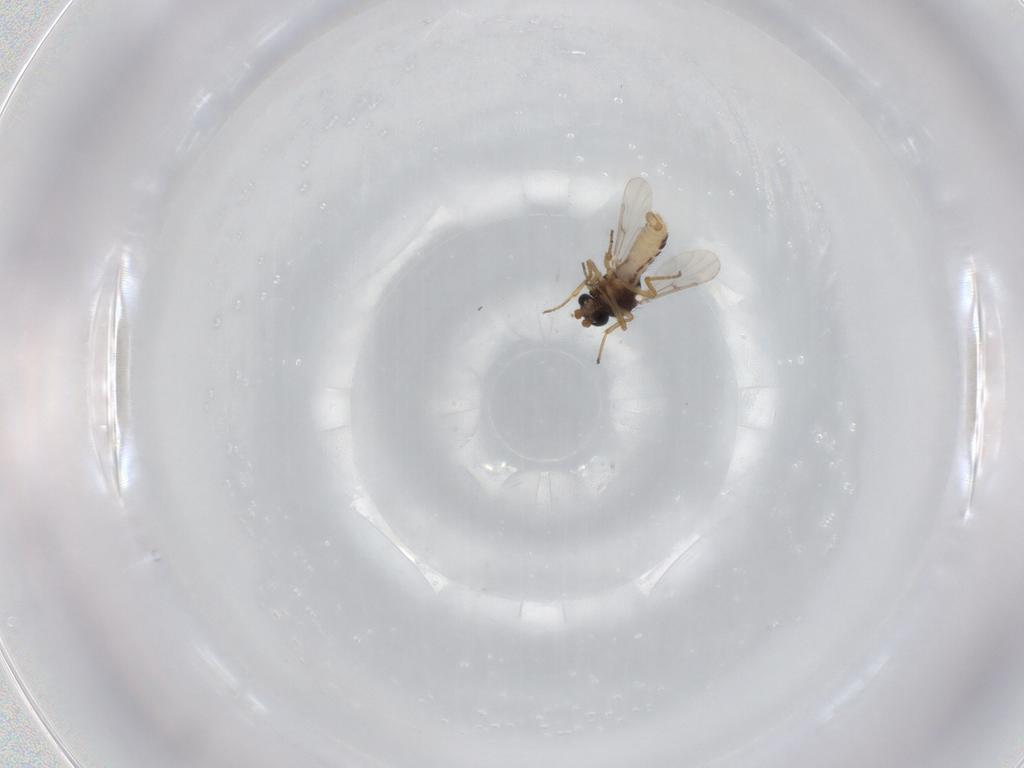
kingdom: Animalia
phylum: Arthropoda
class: Insecta
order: Diptera
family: Ceratopogonidae
